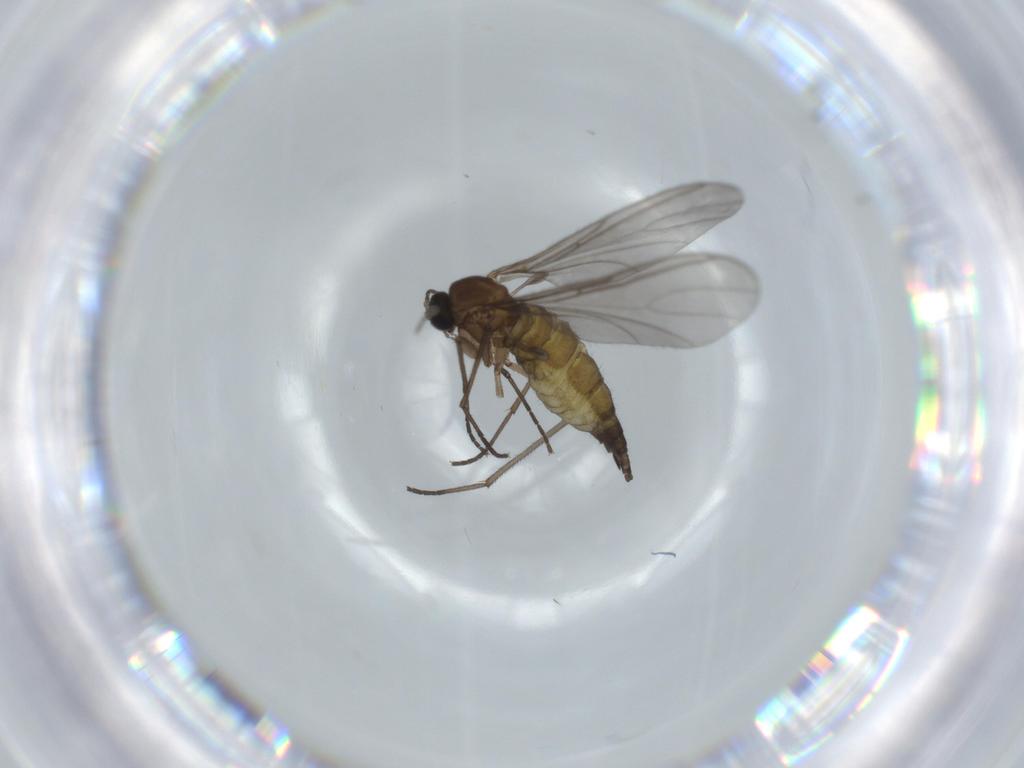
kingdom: Animalia
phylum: Arthropoda
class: Insecta
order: Diptera
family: Sciaridae
